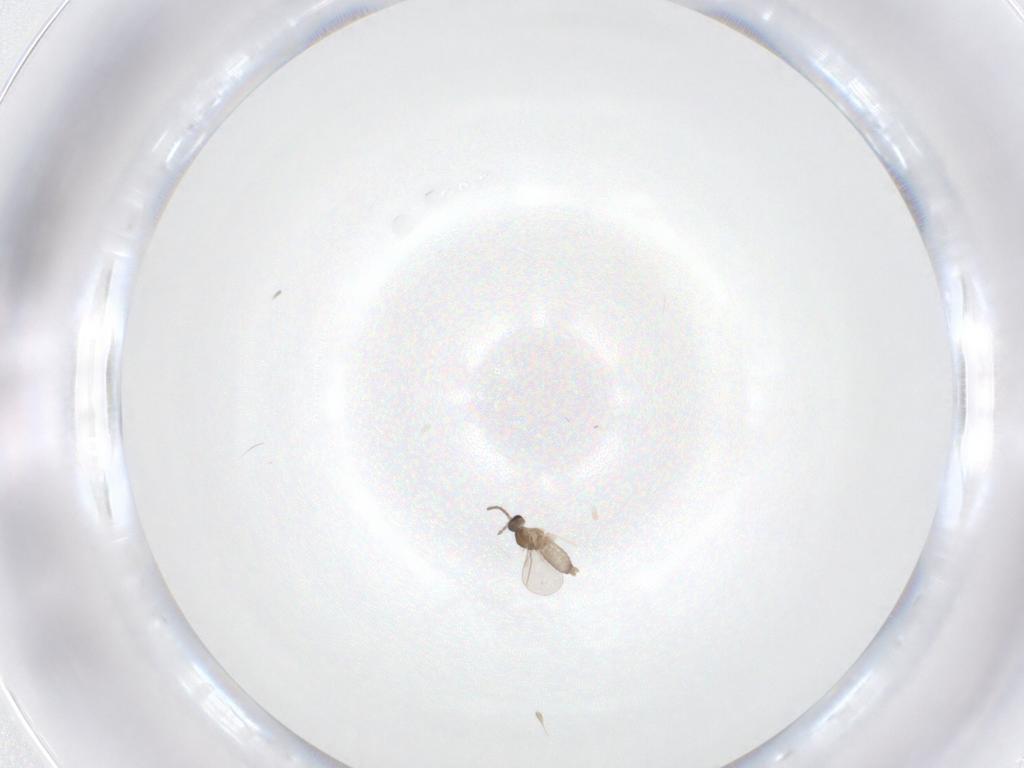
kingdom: Animalia
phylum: Arthropoda
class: Insecta
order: Diptera
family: Cecidomyiidae
